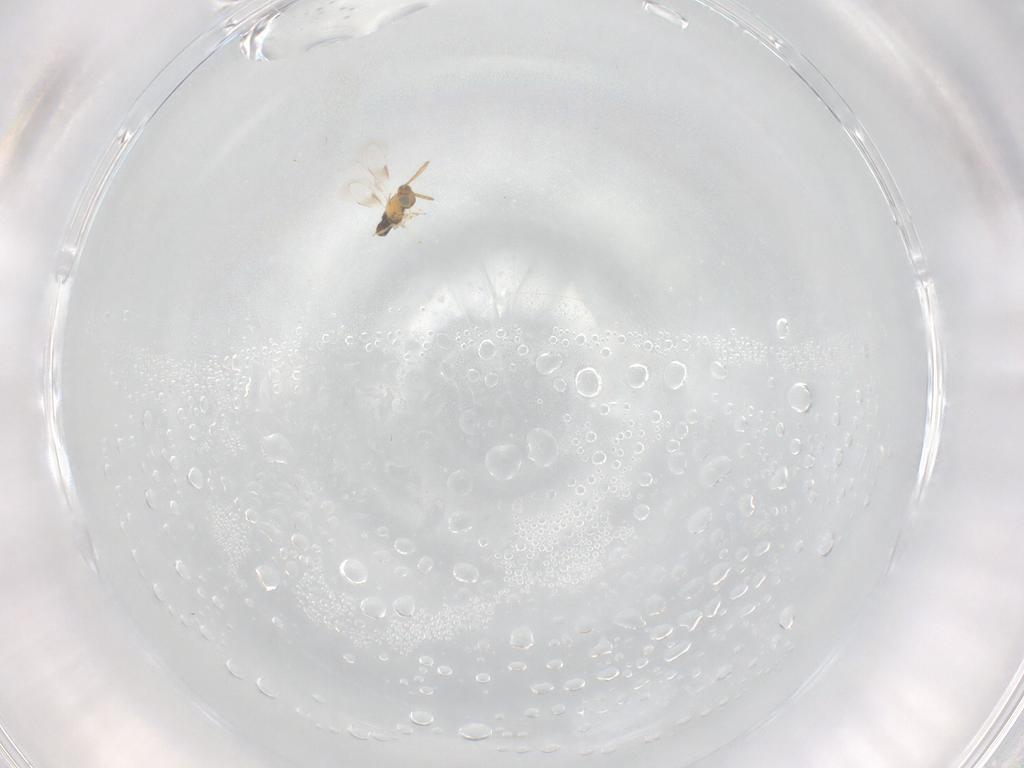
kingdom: Animalia
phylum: Arthropoda
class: Insecta
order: Hymenoptera
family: Aphelinidae
